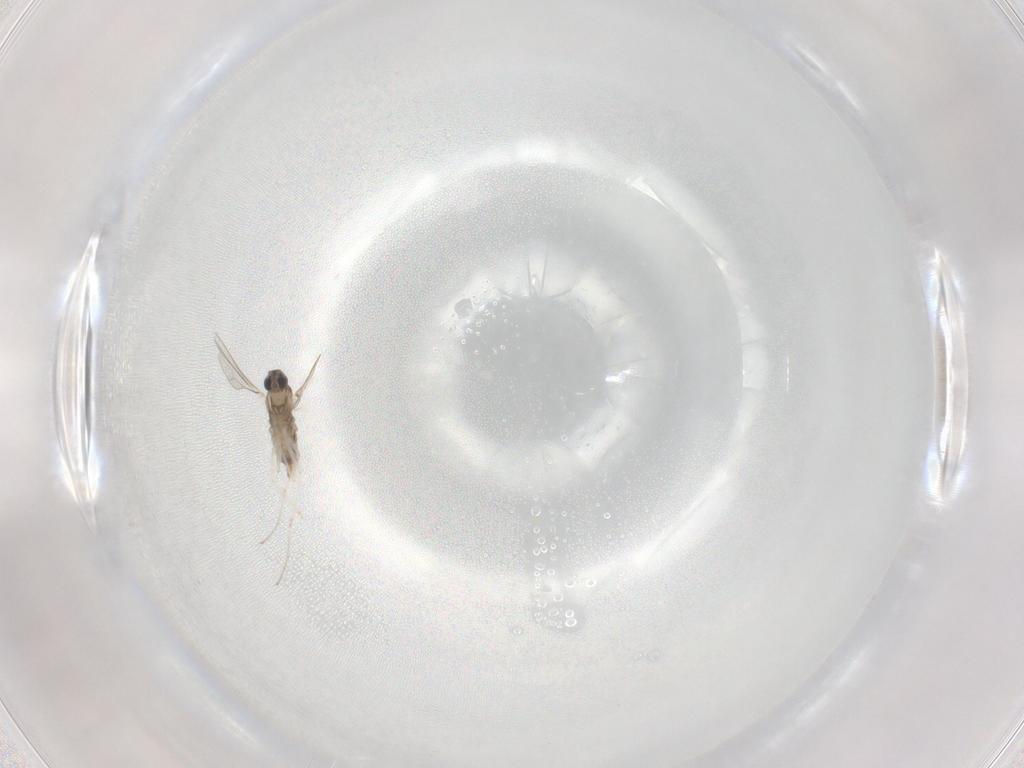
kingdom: Animalia
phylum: Arthropoda
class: Insecta
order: Diptera
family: Cecidomyiidae
